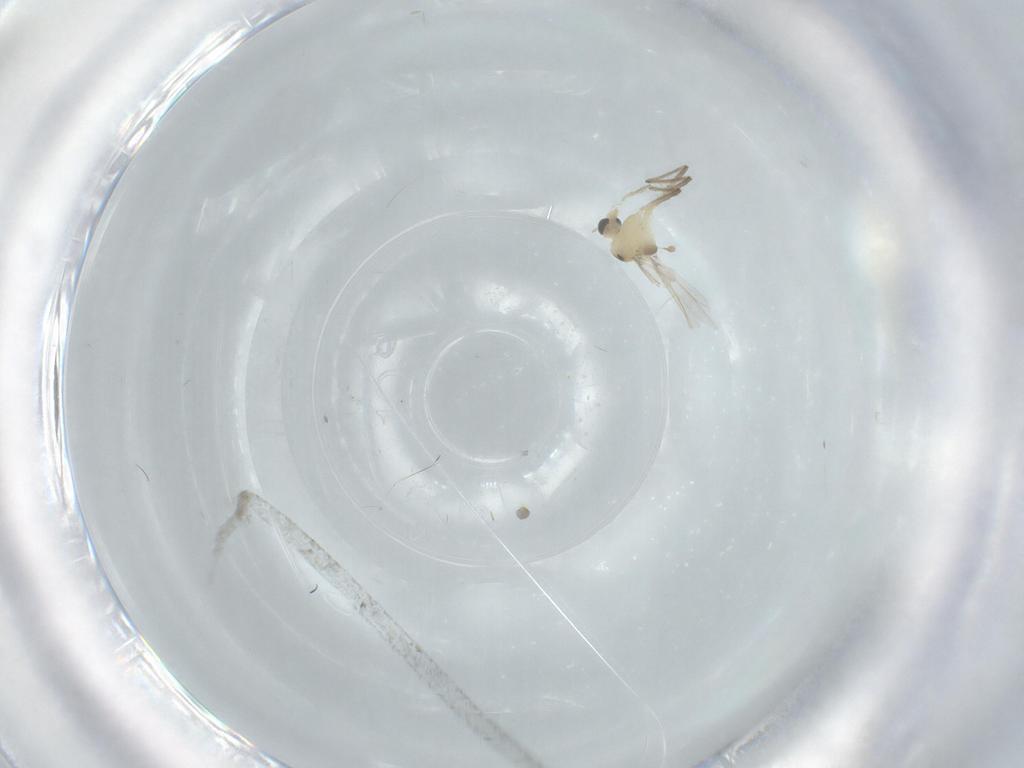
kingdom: Animalia
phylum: Arthropoda
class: Insecta
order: Diptera
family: Chironomidae
